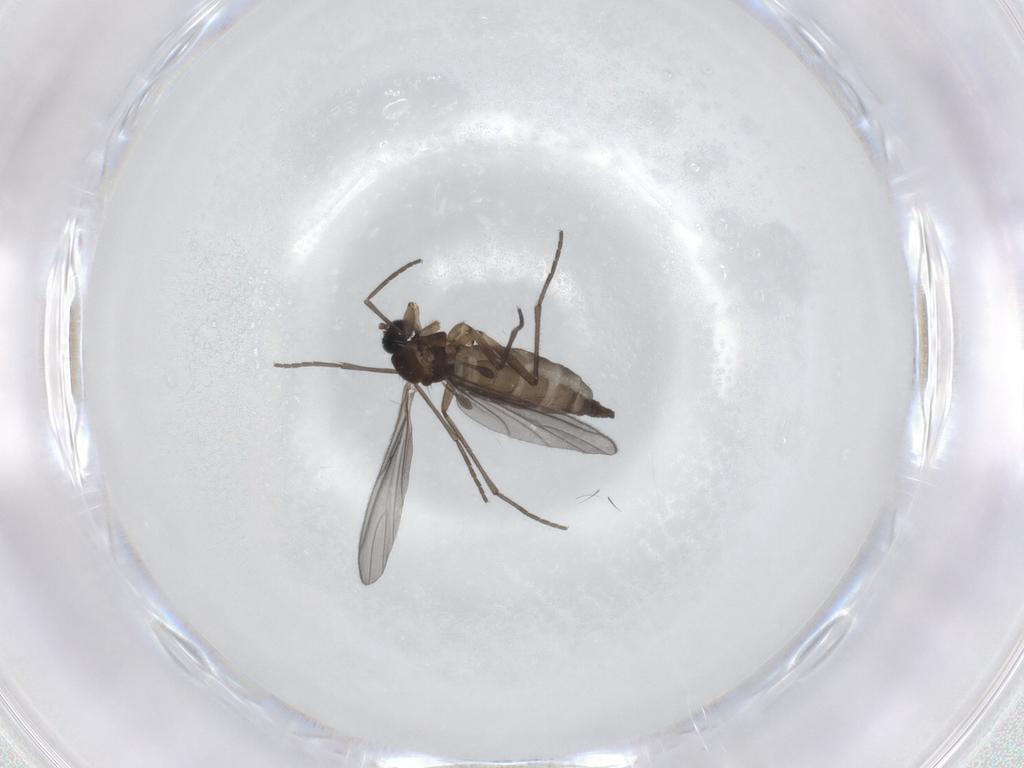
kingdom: Animalia
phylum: Arthropoda
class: Insecta
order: Diptera
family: Sciaridae
